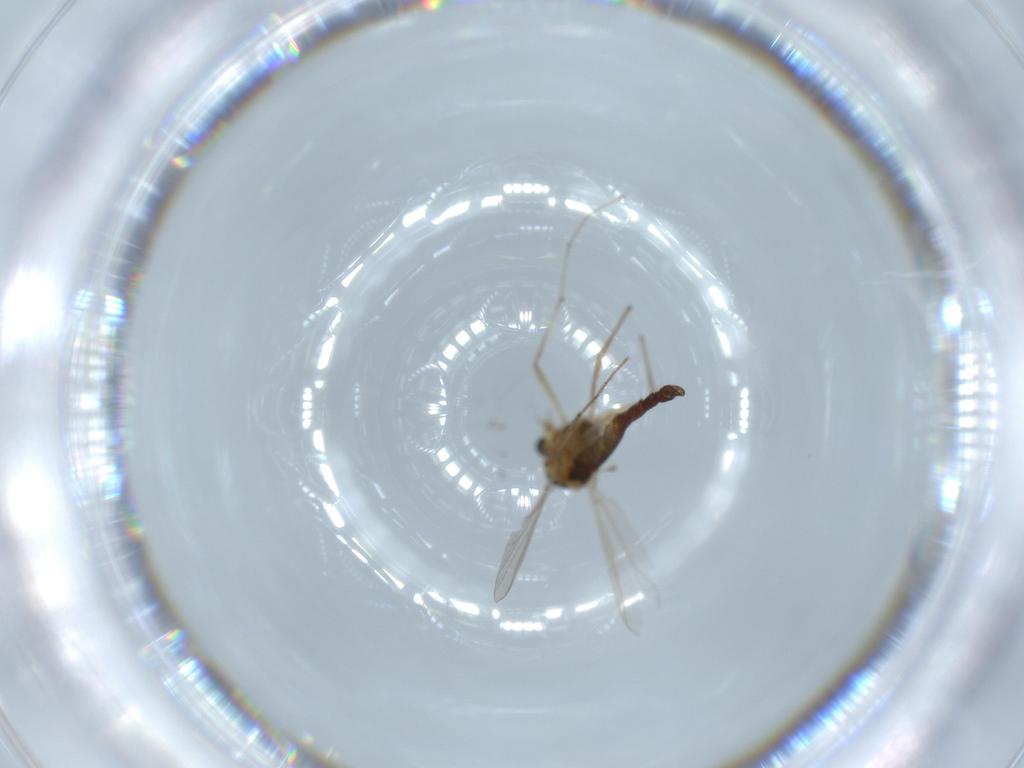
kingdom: Animalia
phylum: Arthropoda
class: Insecta
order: Diptera
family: Chironomidae
